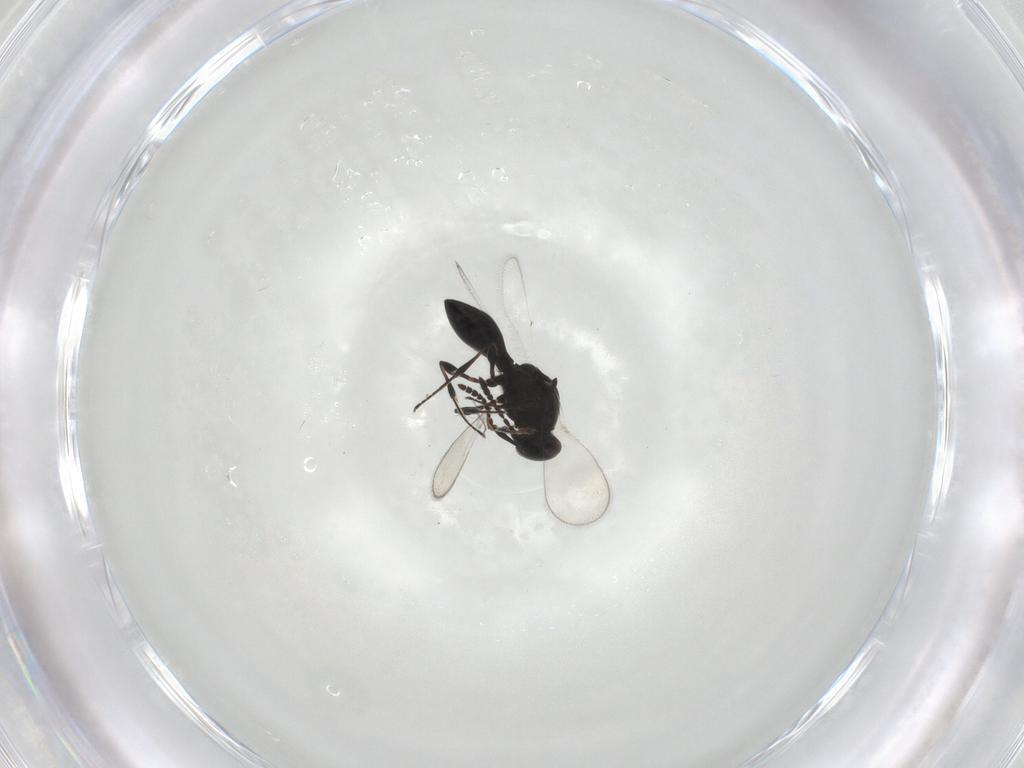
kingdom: Animalia
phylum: Arthropoda
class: Insecta
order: Hymenoptera
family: Platygastridae
